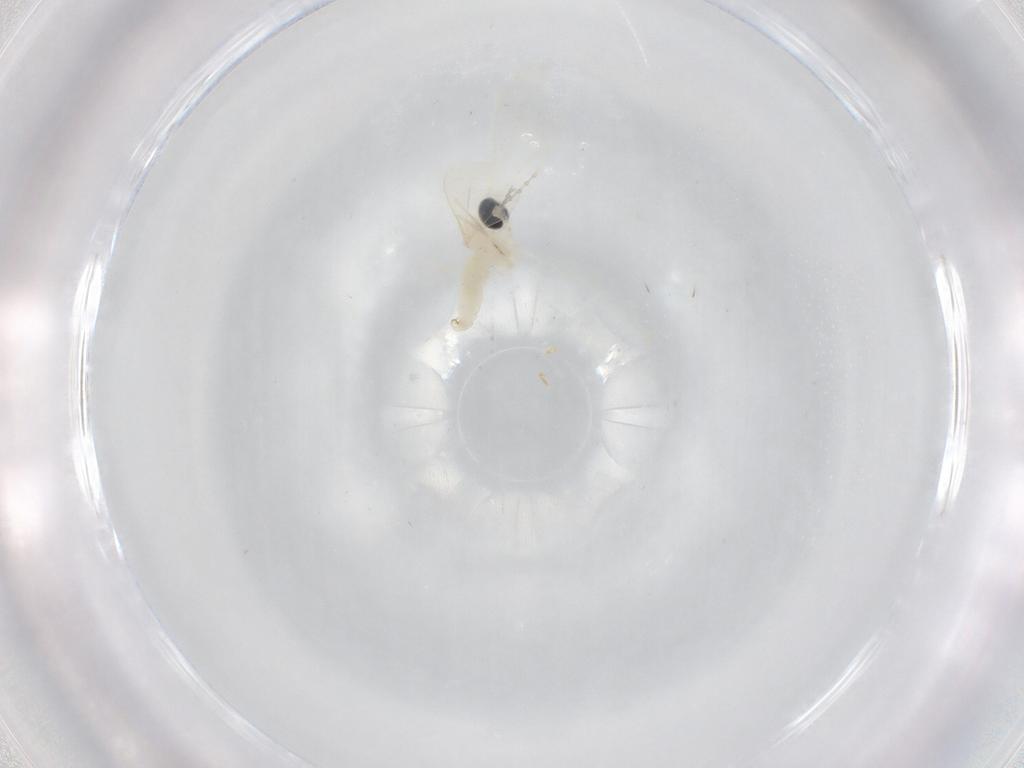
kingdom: Animalia
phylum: Arthropoda
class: Insecta
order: Diptera
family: Cecidomyiidae
